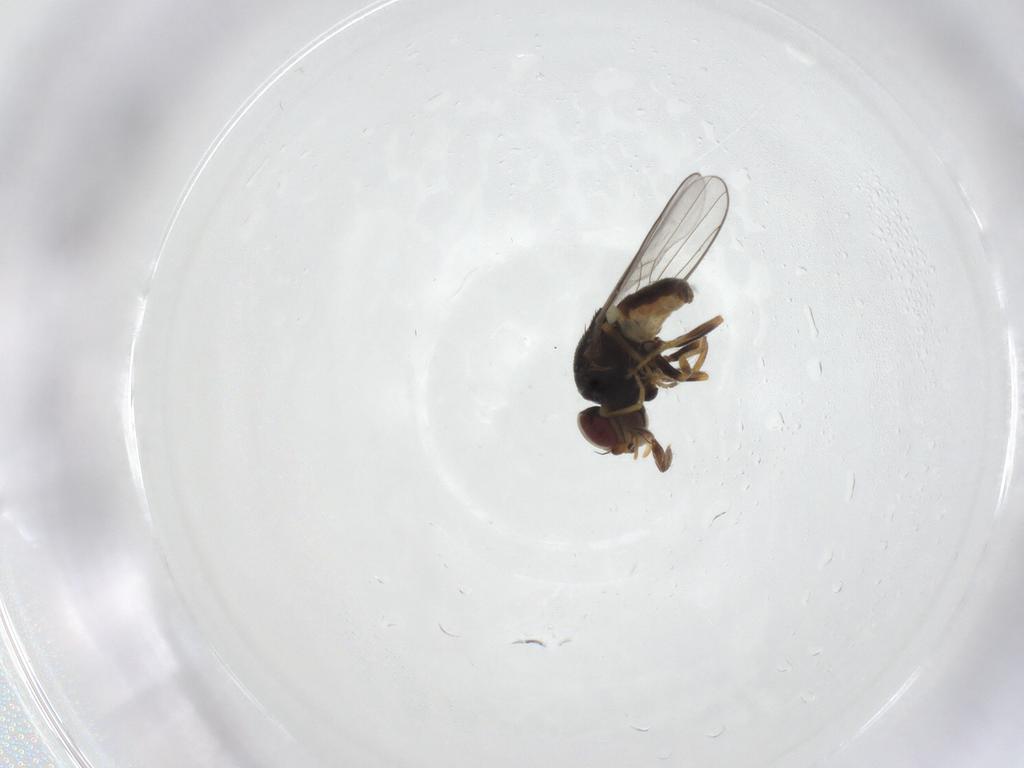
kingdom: Animalia
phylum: Arthropoda
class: Insecta
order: Diptera
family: Chloropidae
